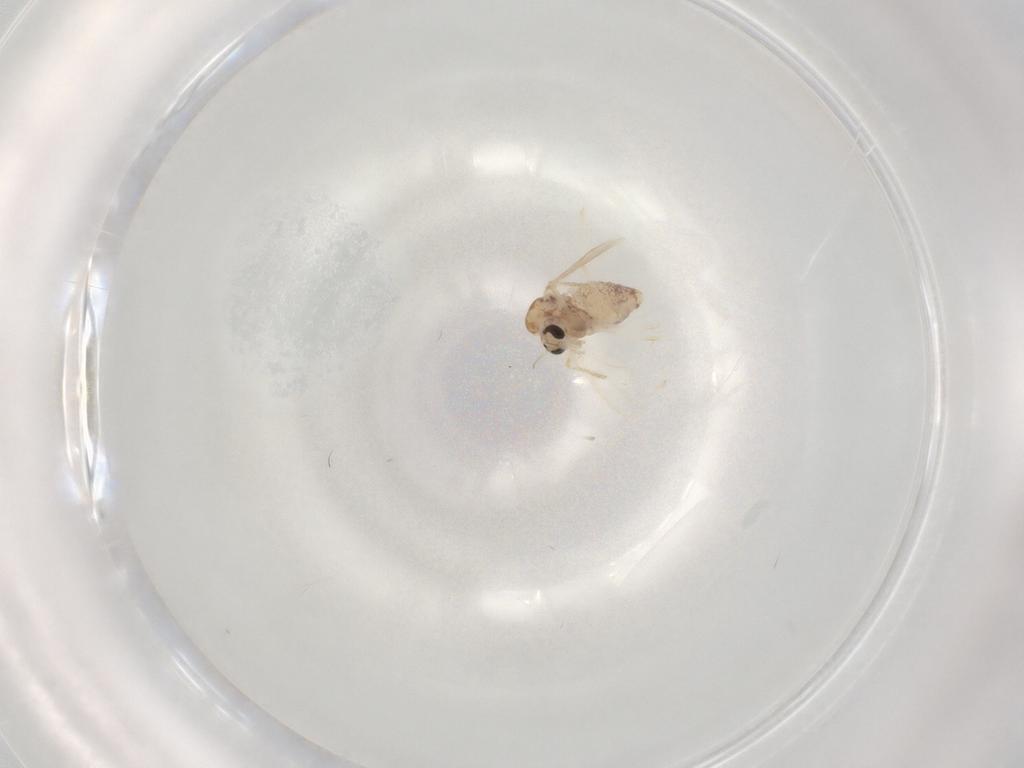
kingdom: Animalia
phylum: Arthropoda
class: Insecta
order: Diptera
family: Chironomidae
